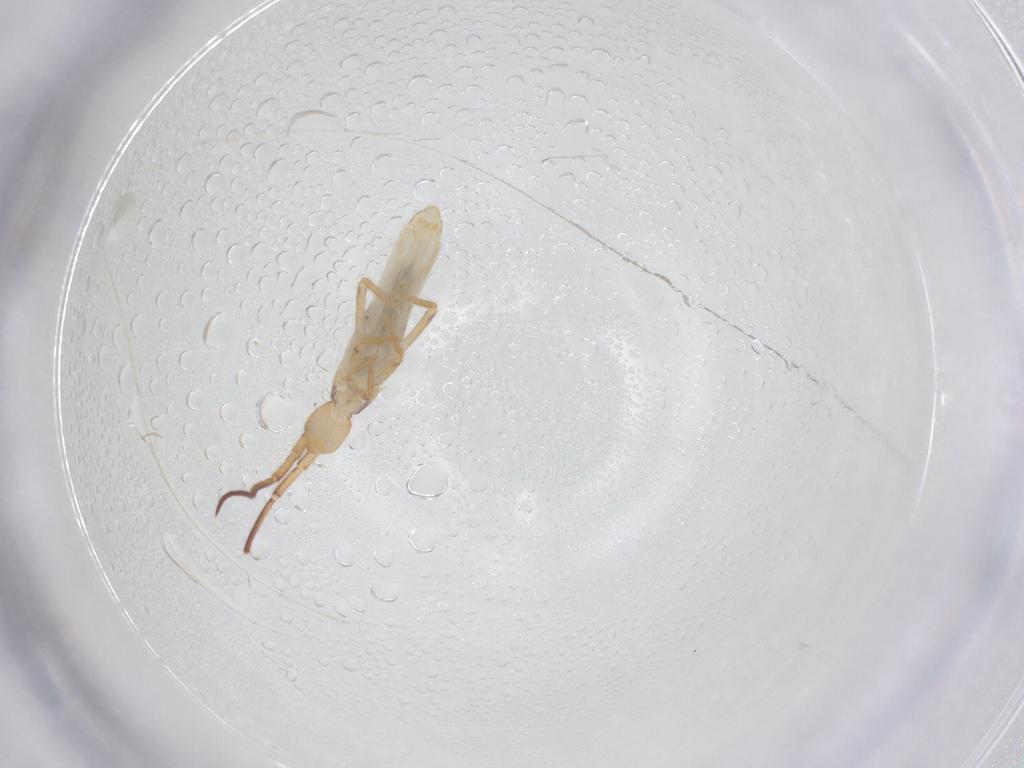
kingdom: Animalia
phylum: Arthropoda
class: Collembola
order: Entomobryomorpha
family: Entomobryidae
